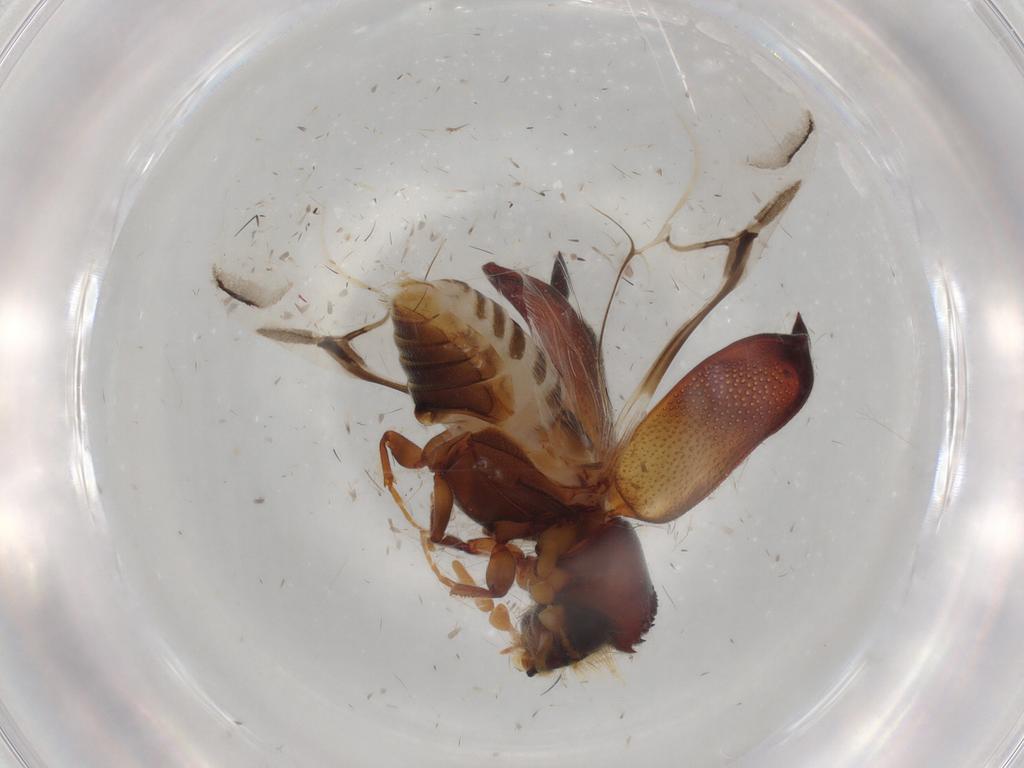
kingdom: Animalia
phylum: Arthropoda
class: Insecta
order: Coleoptera
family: Bostrichidae
